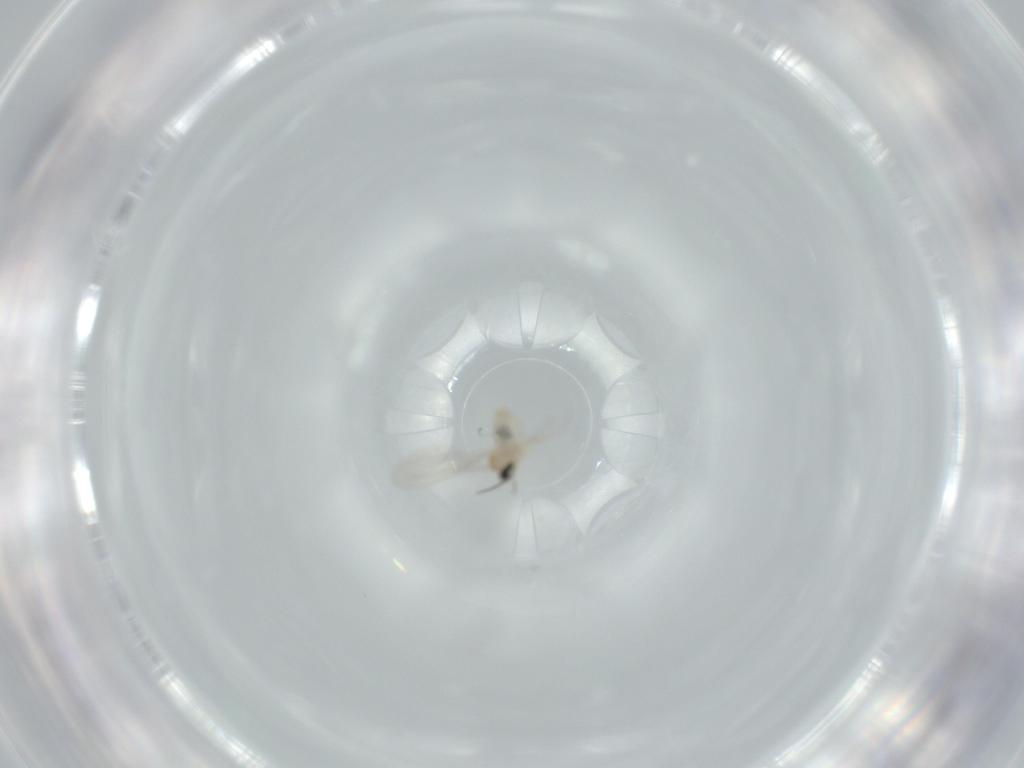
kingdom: Animalia
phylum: Arthropoda
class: Insecta
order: Diptera
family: Cecidomyiidae
